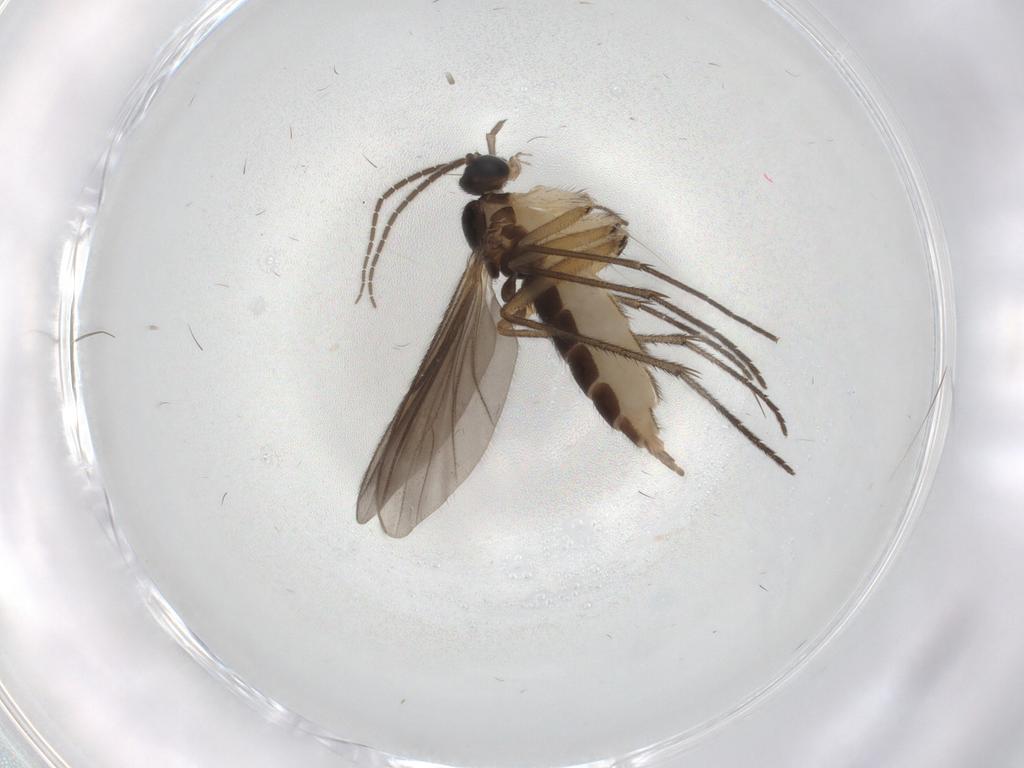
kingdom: Animalia
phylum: Arthropoda
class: Insecta
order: Diptera
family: Sciaridae
